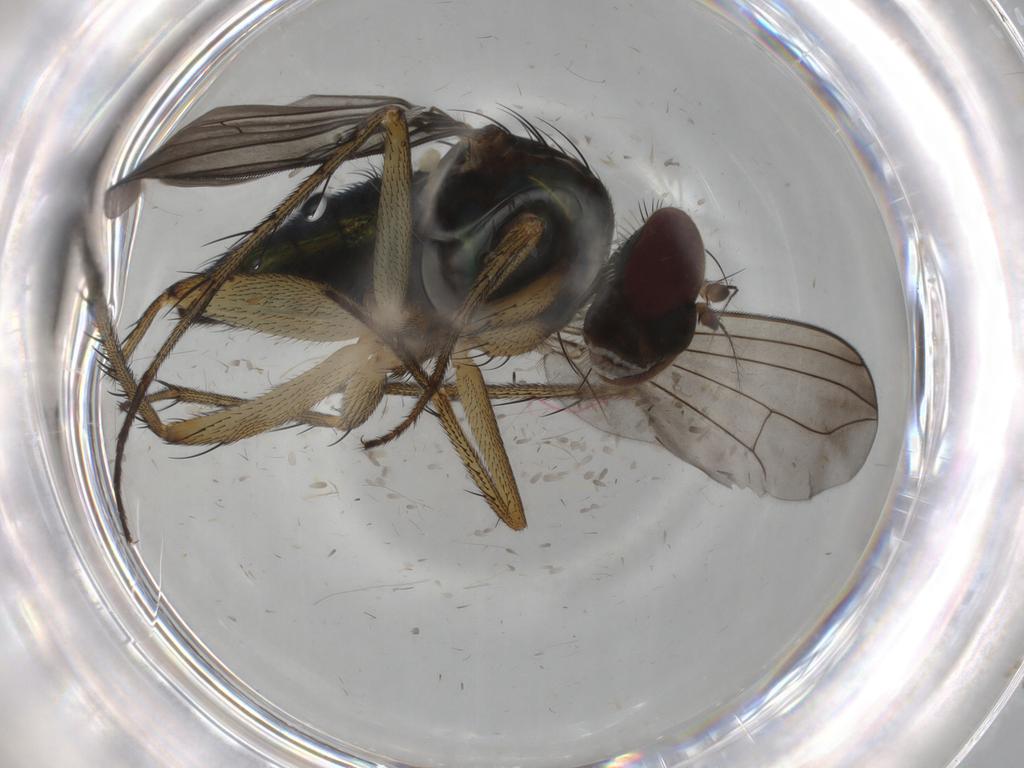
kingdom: Animalia
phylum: Arthropoda
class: Insecta
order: Diptera
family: Dolichopodidae
